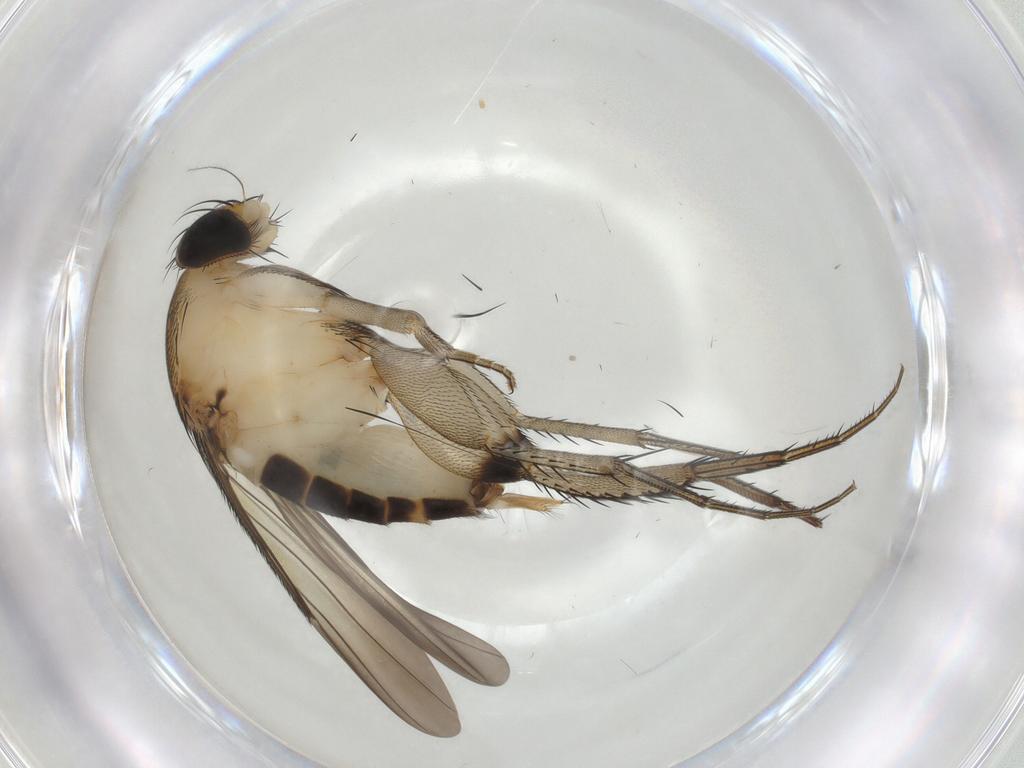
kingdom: Animalia
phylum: Arthropoda
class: Insecta
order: Diptera
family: Phoridae
